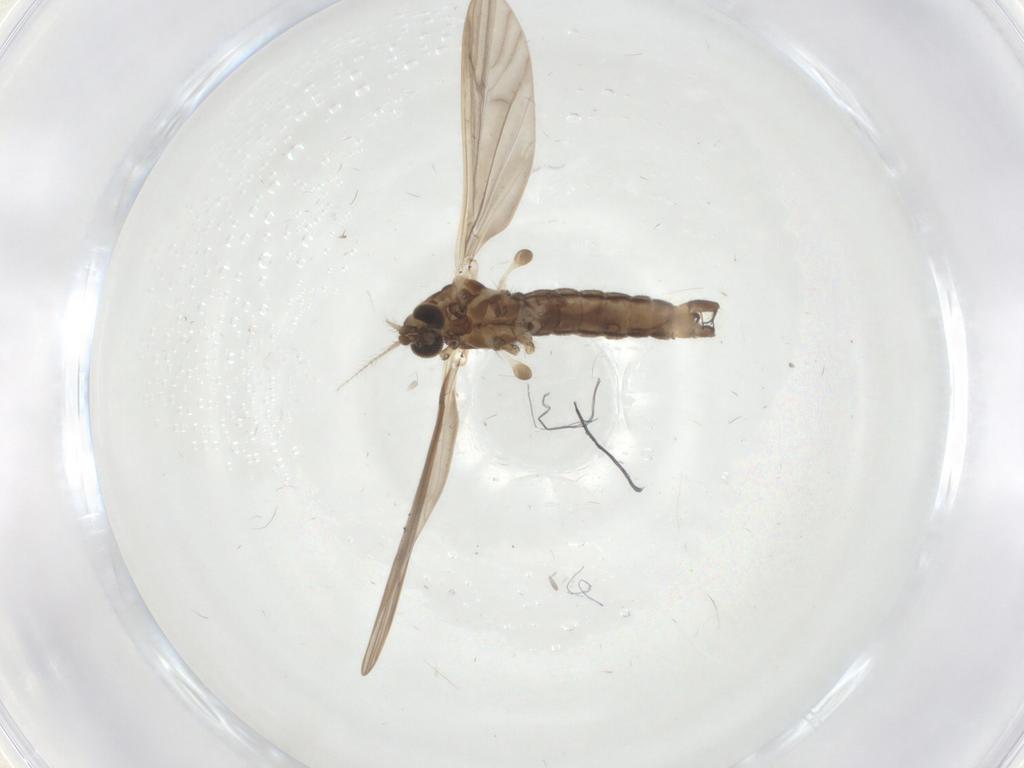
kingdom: Animalia
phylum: Arthropoda
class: Insecta
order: Diptera
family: Limoniidae
